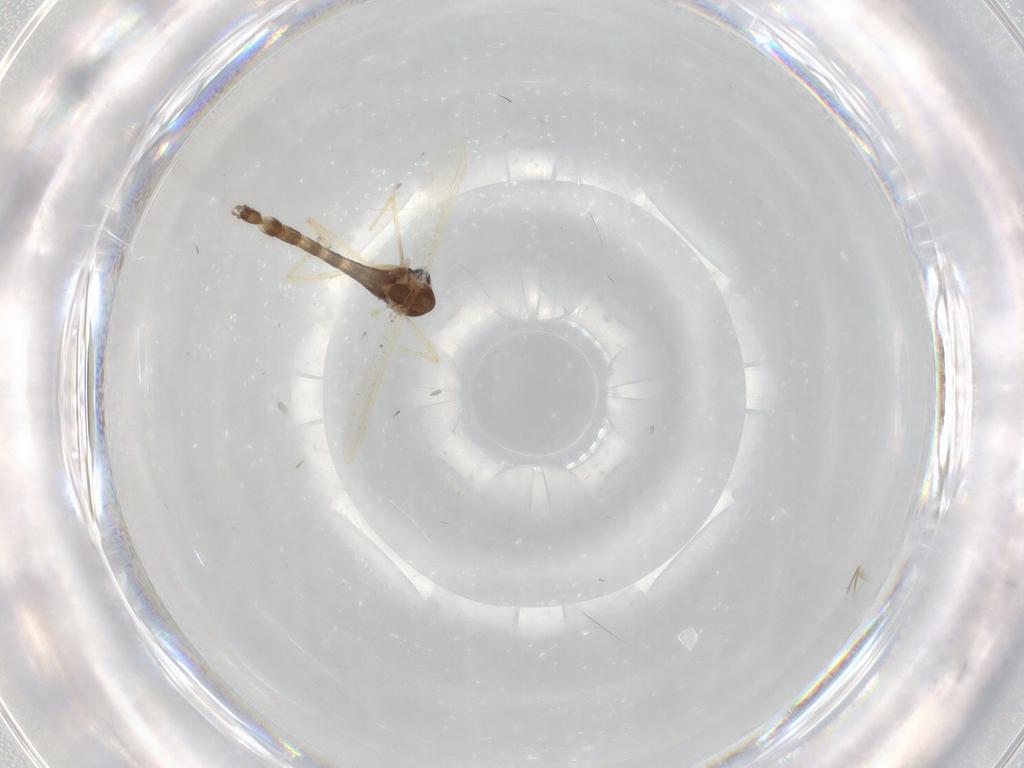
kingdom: Animalia
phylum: Arthropoda
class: Insecta
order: Diptera
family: Chironomidae
